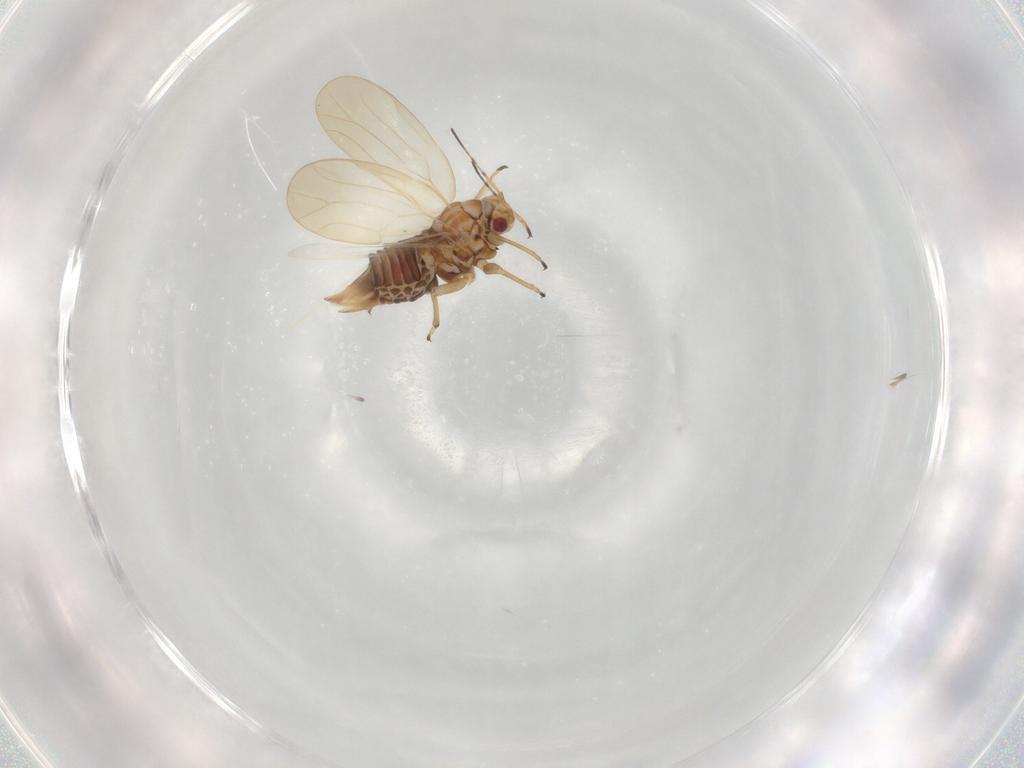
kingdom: Animalia
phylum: Arthropoda
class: Insecta
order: Hemiptera
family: Psylloidea_incertae_sedis
